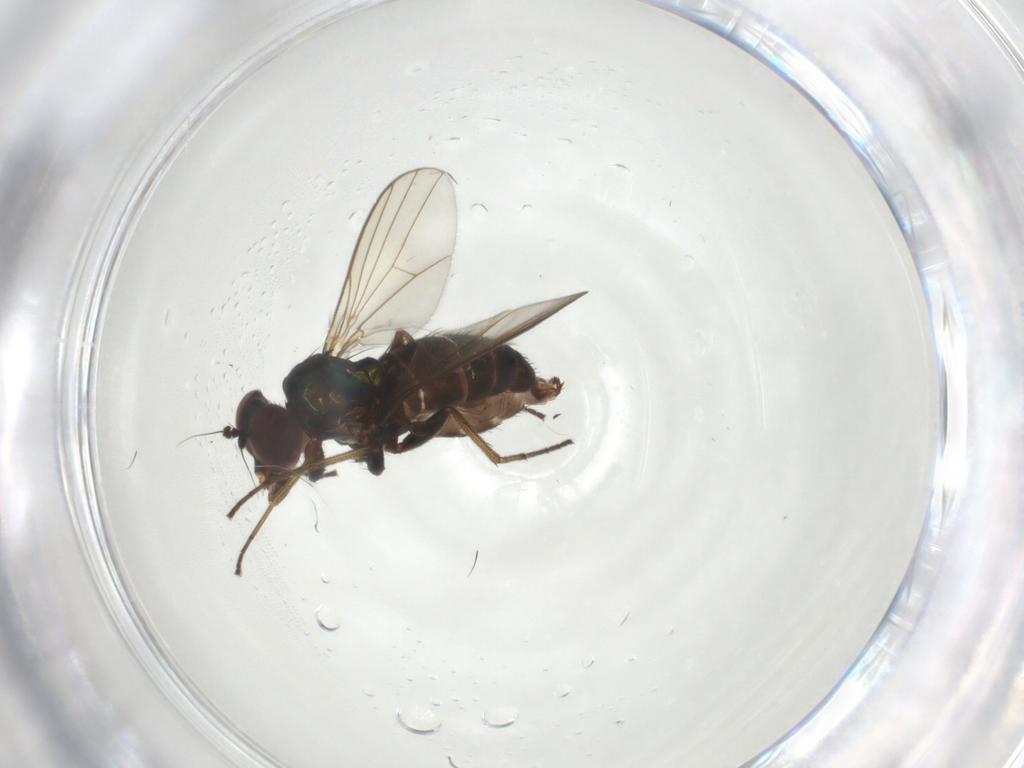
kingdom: Animalia
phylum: Arthropoda
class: Insecta
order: Diptera
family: Dolichopodidae
